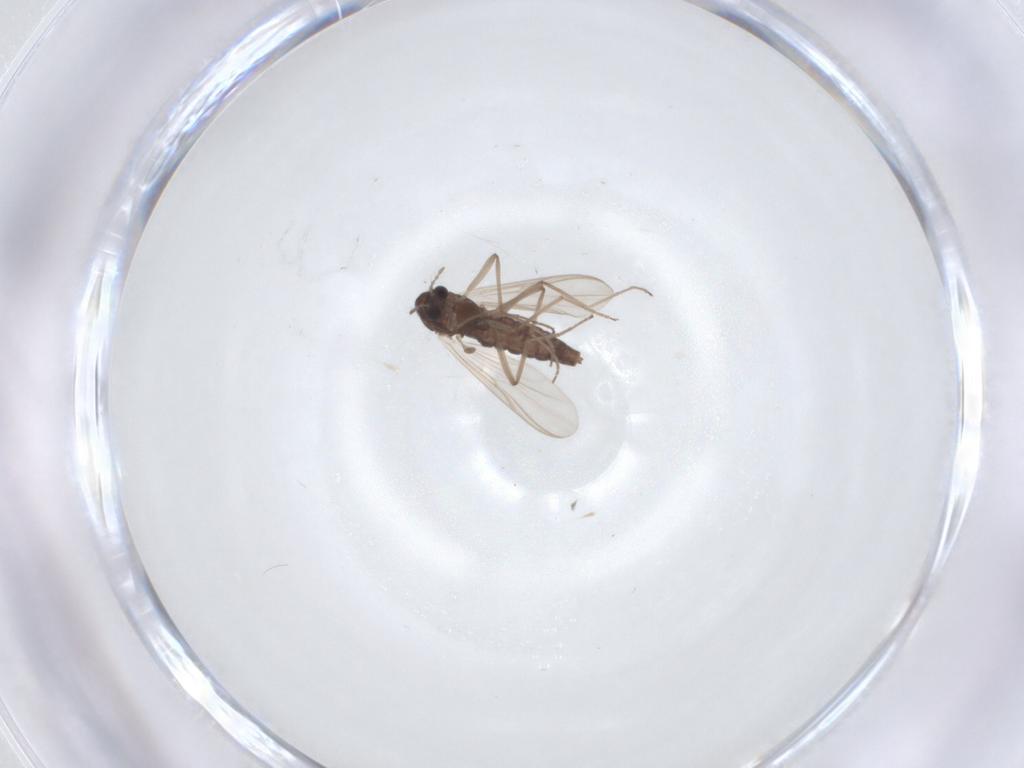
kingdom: Animalia
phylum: Arthropoda
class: Insecta
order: Diptera
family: Chironomidae
